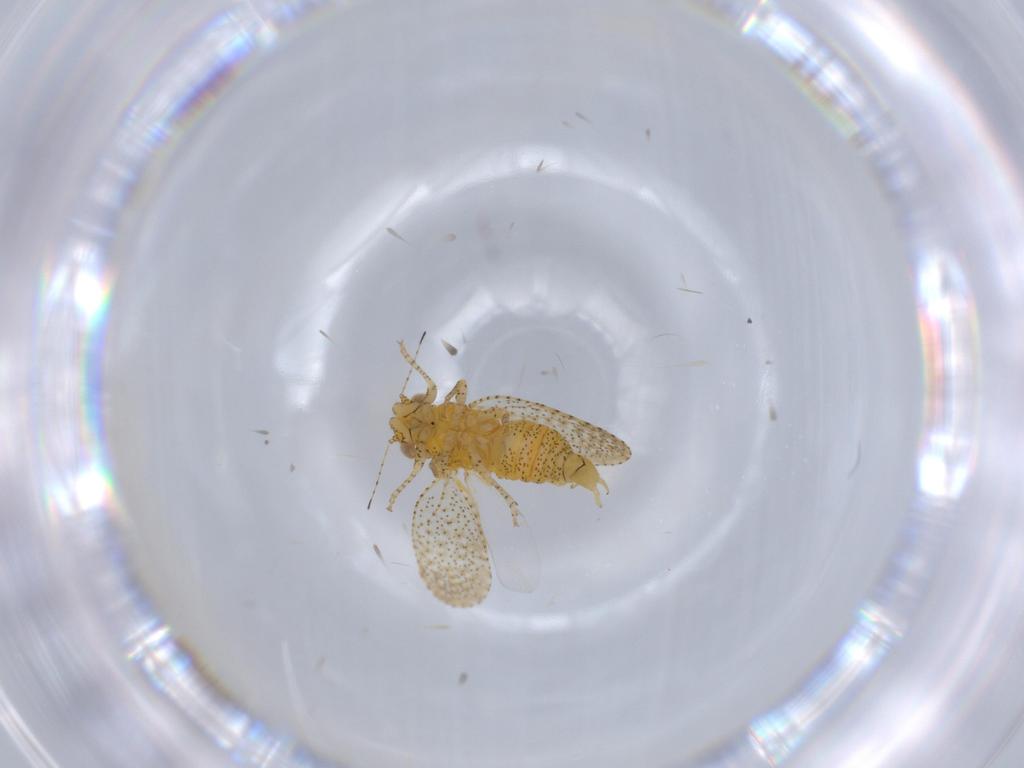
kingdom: Animalia
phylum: Arthropoda
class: Insecta
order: Hemiptera
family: Psyllidae
